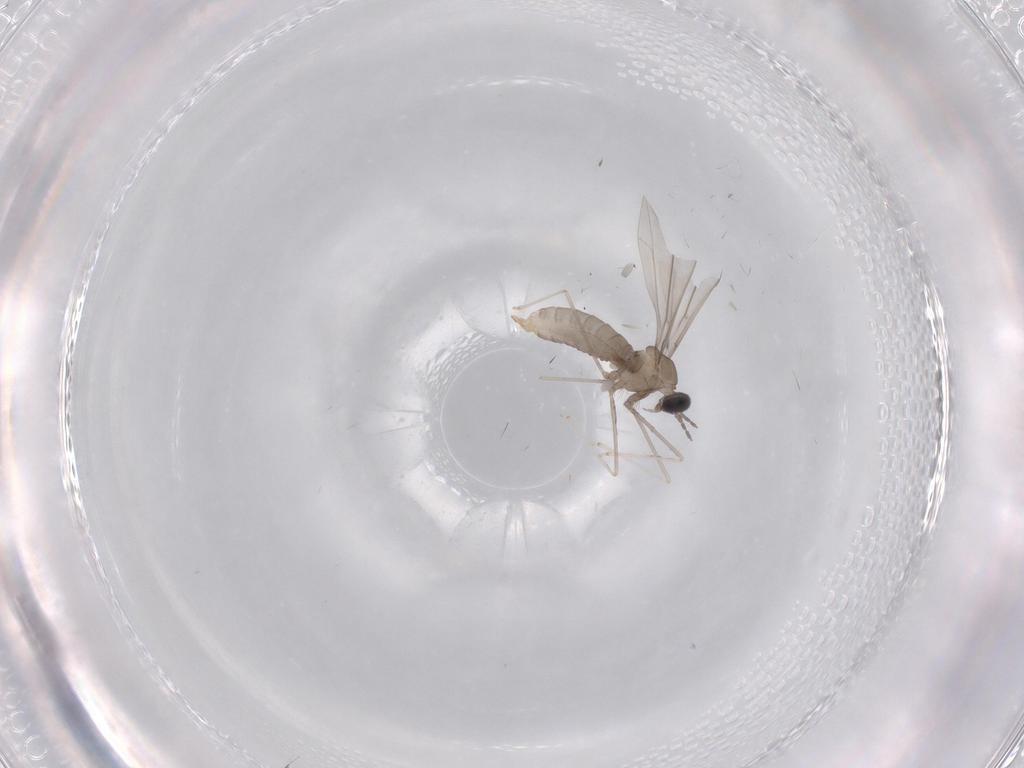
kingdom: Animalia
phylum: Arthropoda
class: Insecta
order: Diptera
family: Cecidomyiidae
